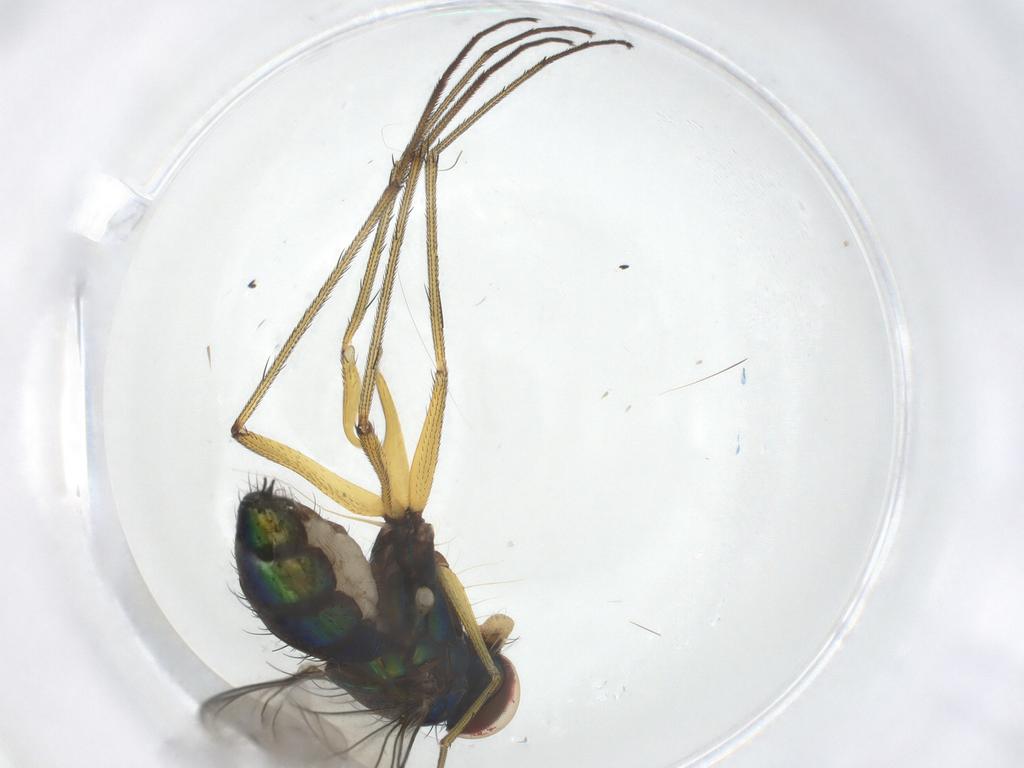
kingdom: Animalia
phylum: Arthropoda
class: Insecta
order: Diptera
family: Dolichopodidae
